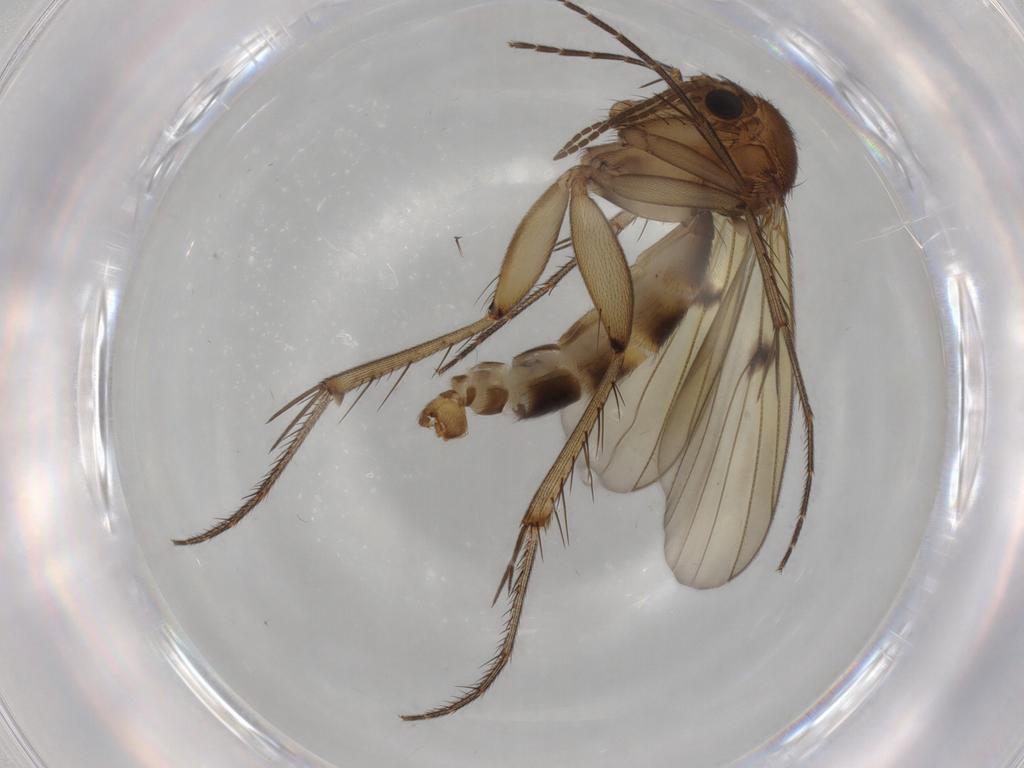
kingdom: Animalia
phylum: Arthropoda
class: Insecta
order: Diptera
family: Mycetophilidae
